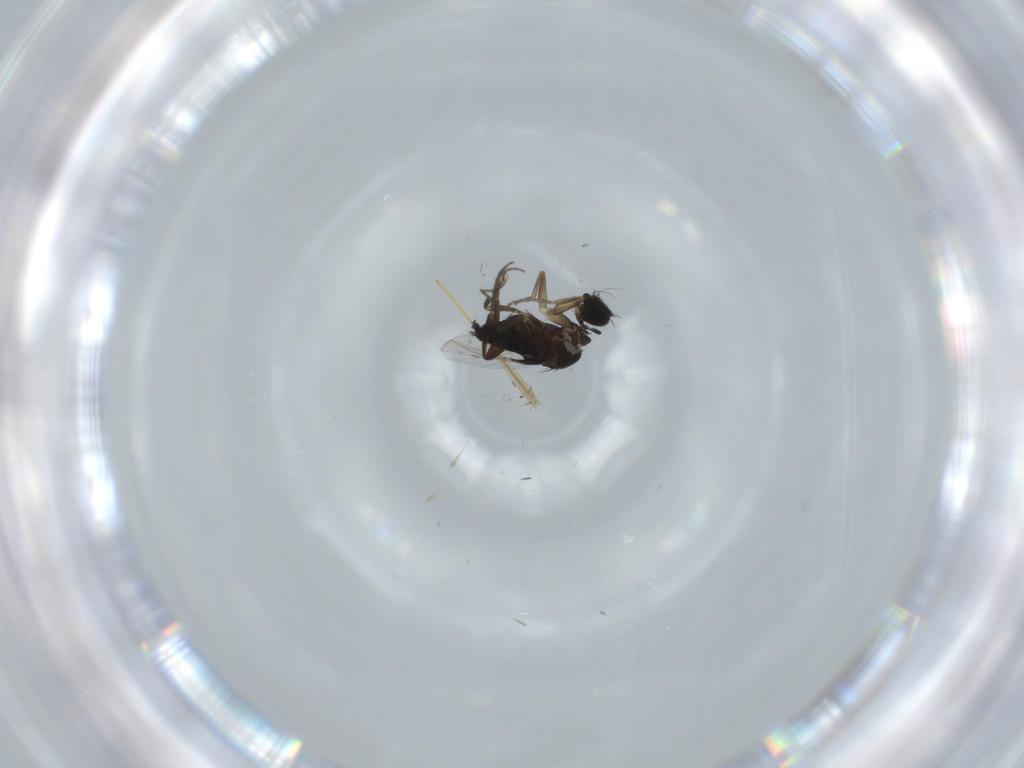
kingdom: Animalia
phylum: Arthropoda
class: Insecta
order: Diptera
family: Phoridae
